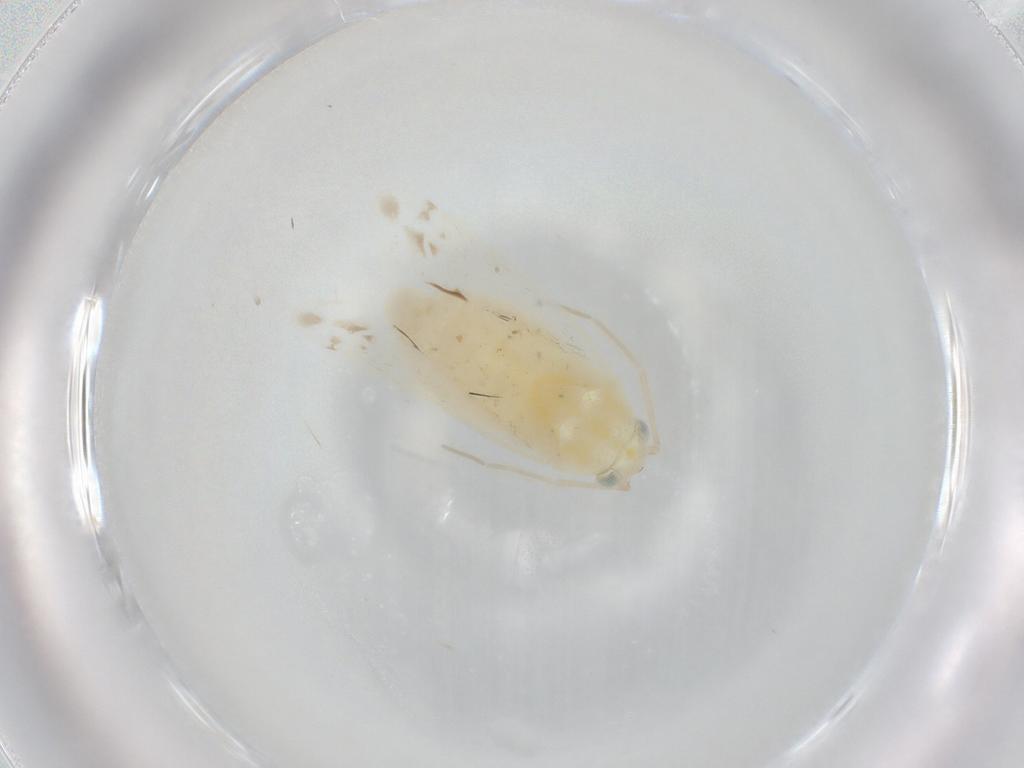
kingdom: Animalia
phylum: Arthropoda
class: Insecta
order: Hemiptera
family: Miridae
